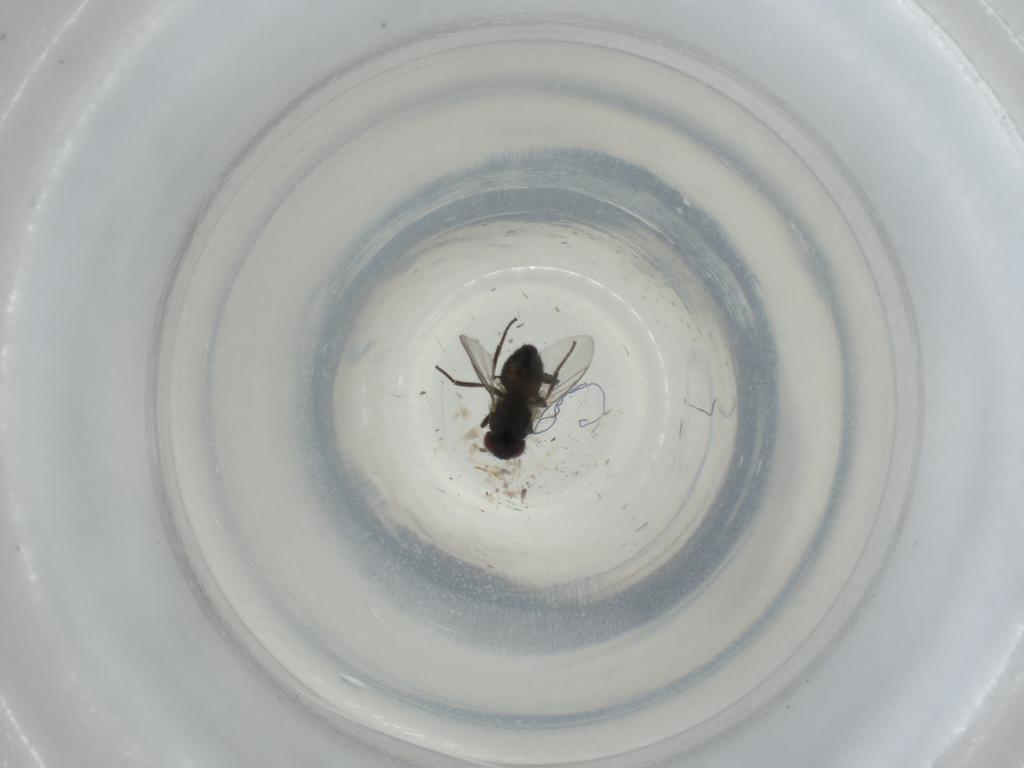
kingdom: Animalia
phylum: Arthropoda
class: Insecta
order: Diptera
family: Agromyzidae
